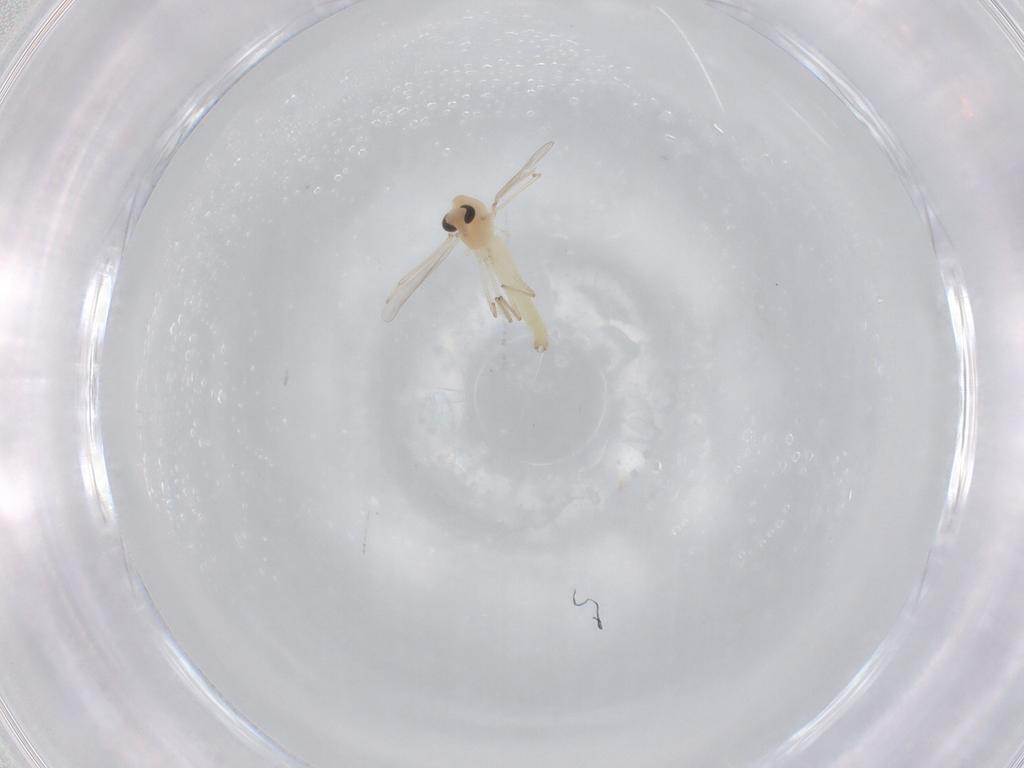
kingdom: Animalia
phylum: Arthropoda
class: Insecta
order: Diptera
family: Chironomidae
